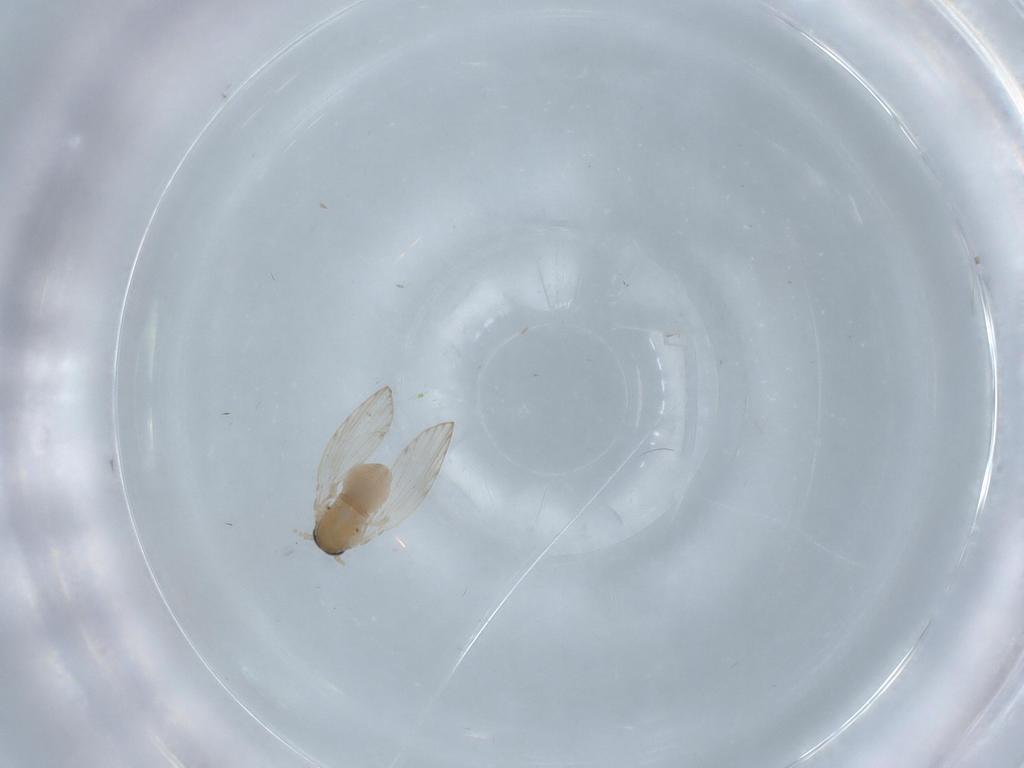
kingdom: Animalia
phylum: Arthropoda
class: Insecta
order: Diptera
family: Psychodidae
